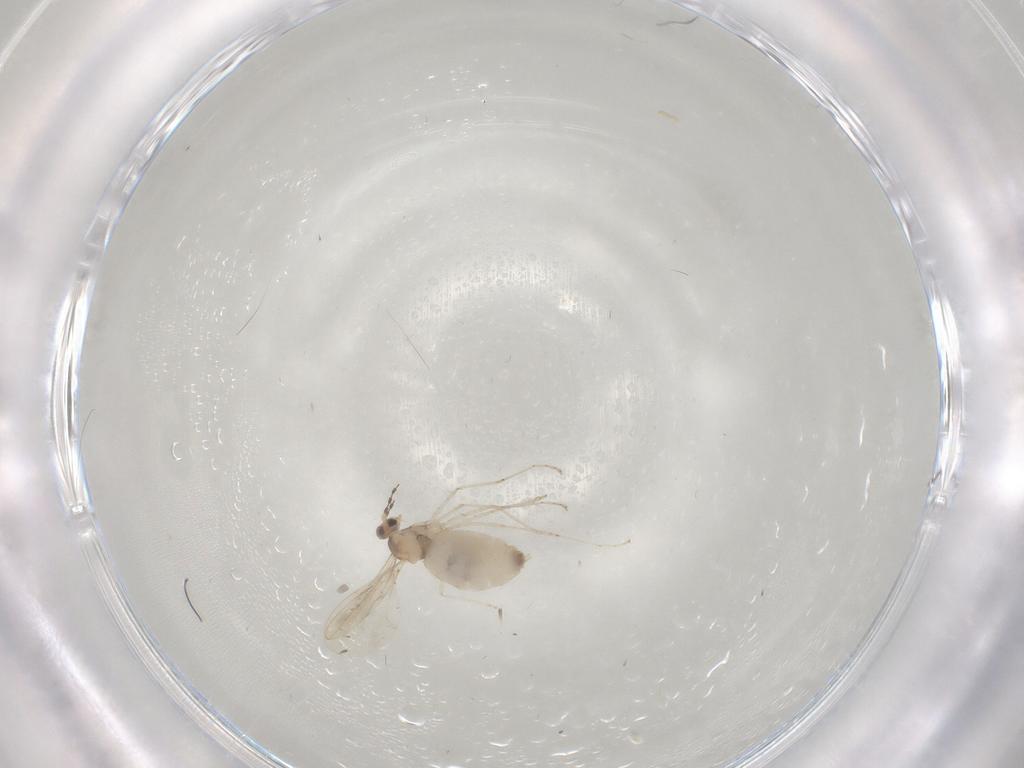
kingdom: Animalia
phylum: Arthropoda
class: Insecta
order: Diptera
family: Cecidomyiidae
